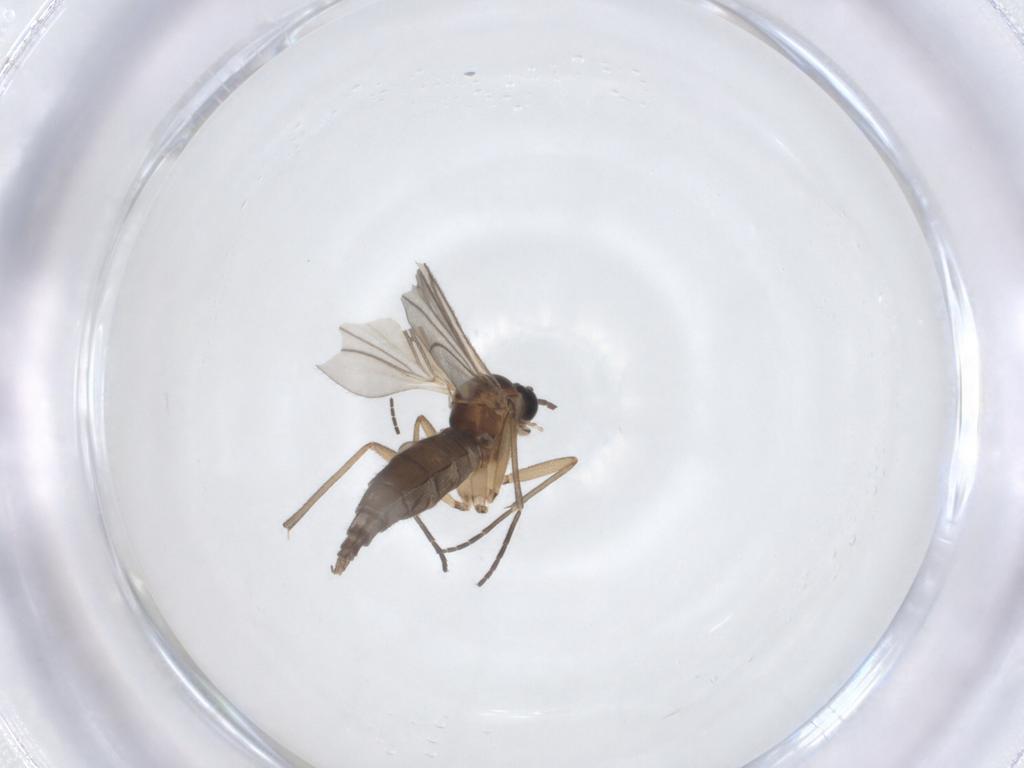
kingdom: Animalia
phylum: Arthropoda
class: Insecta
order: Diptera
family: Sciaridae
